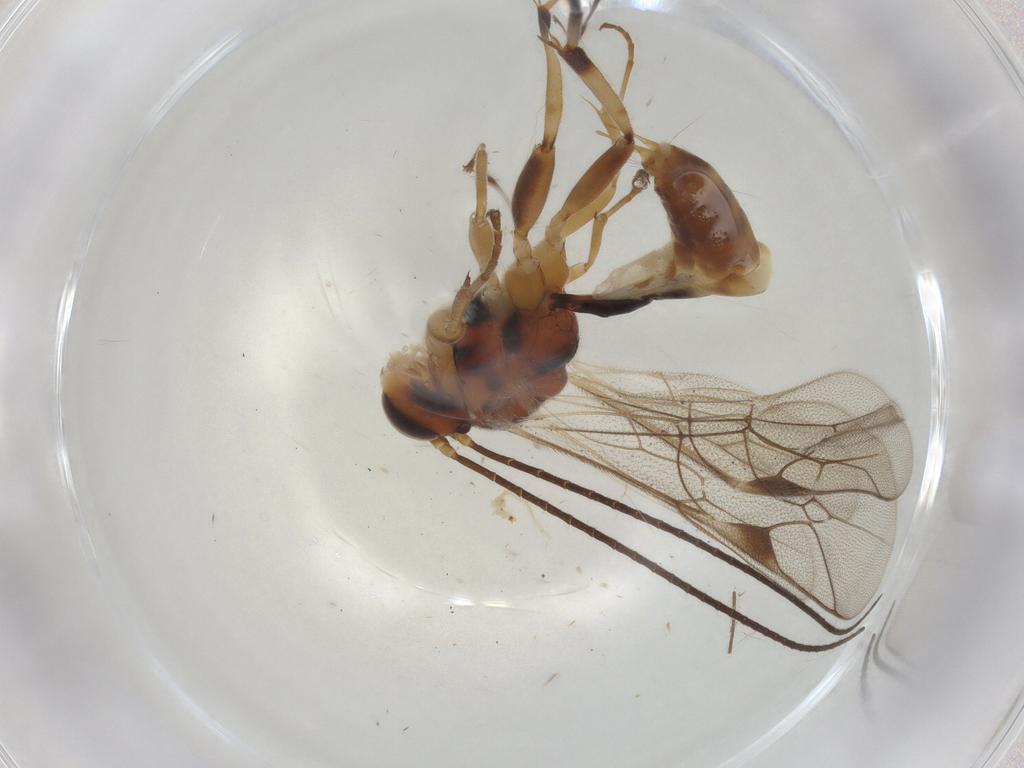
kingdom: Animalia
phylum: Arthropoda
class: Insecta
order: Hymenoptera
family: Ichneumonidae
